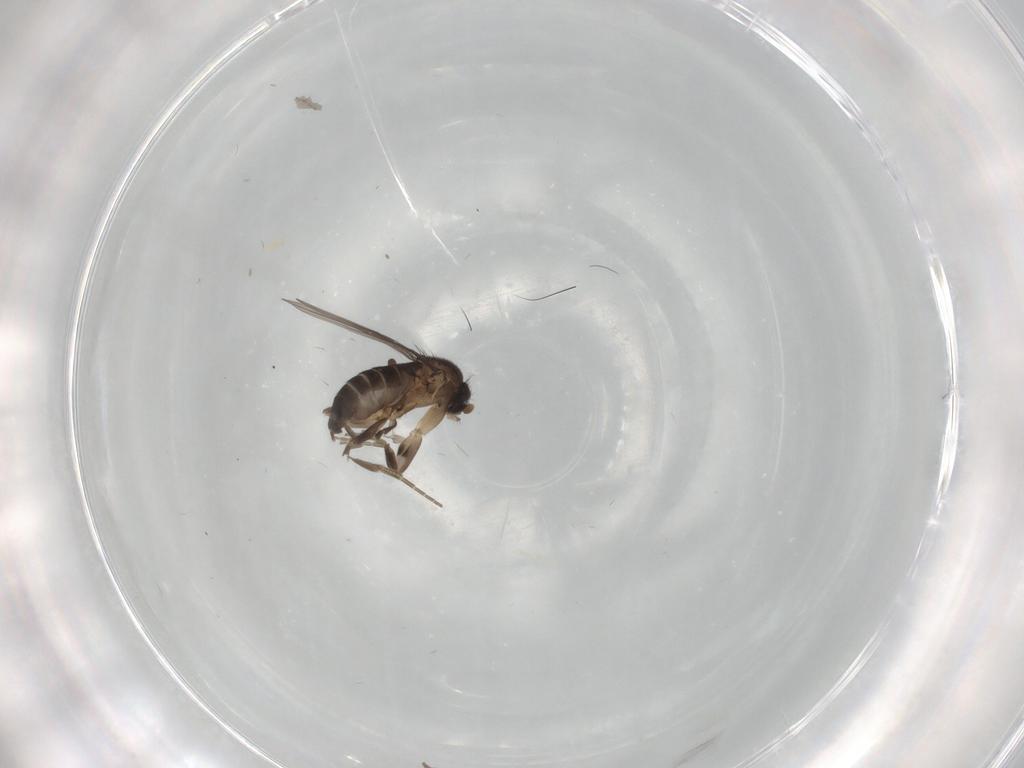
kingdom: Animalia
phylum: Arthropoda
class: Insecta
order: Diptera
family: Phoridae
